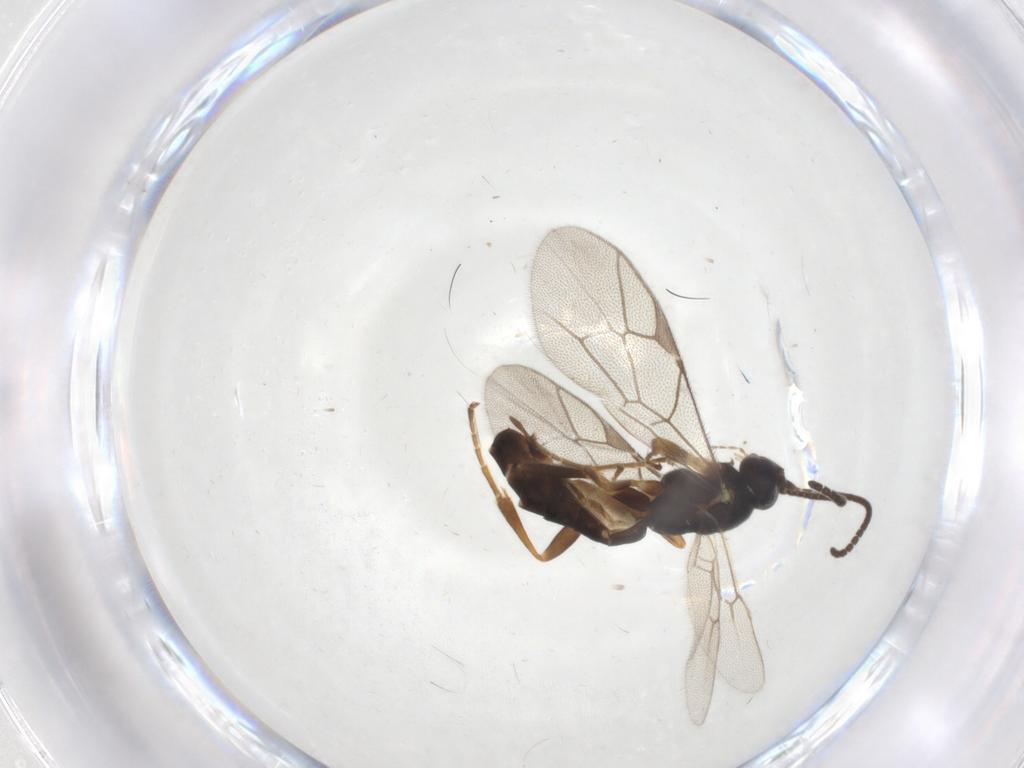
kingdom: Animalia
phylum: Arthropoda
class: Insecta
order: Hymenoptera
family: Ichneumonidae
